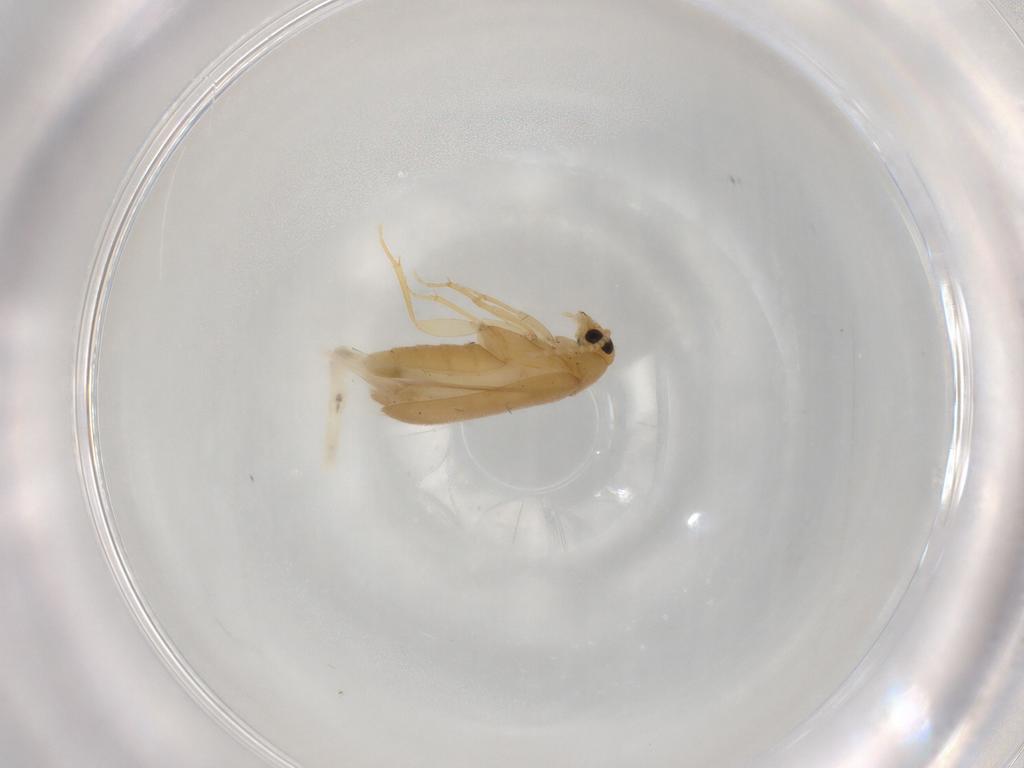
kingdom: Animalia
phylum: Arthropoda
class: Insecta
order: Coleoptera
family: Scraptiidae
